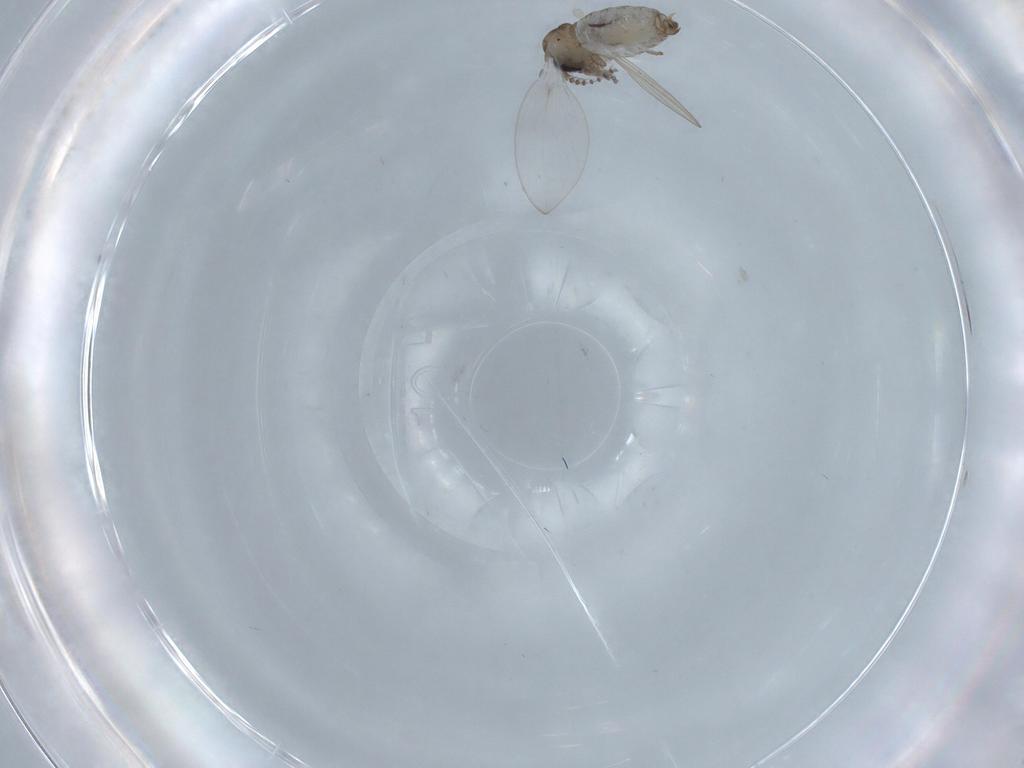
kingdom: Animalia
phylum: Arthropoda
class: Insecta
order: Diptera
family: Psychodidae
